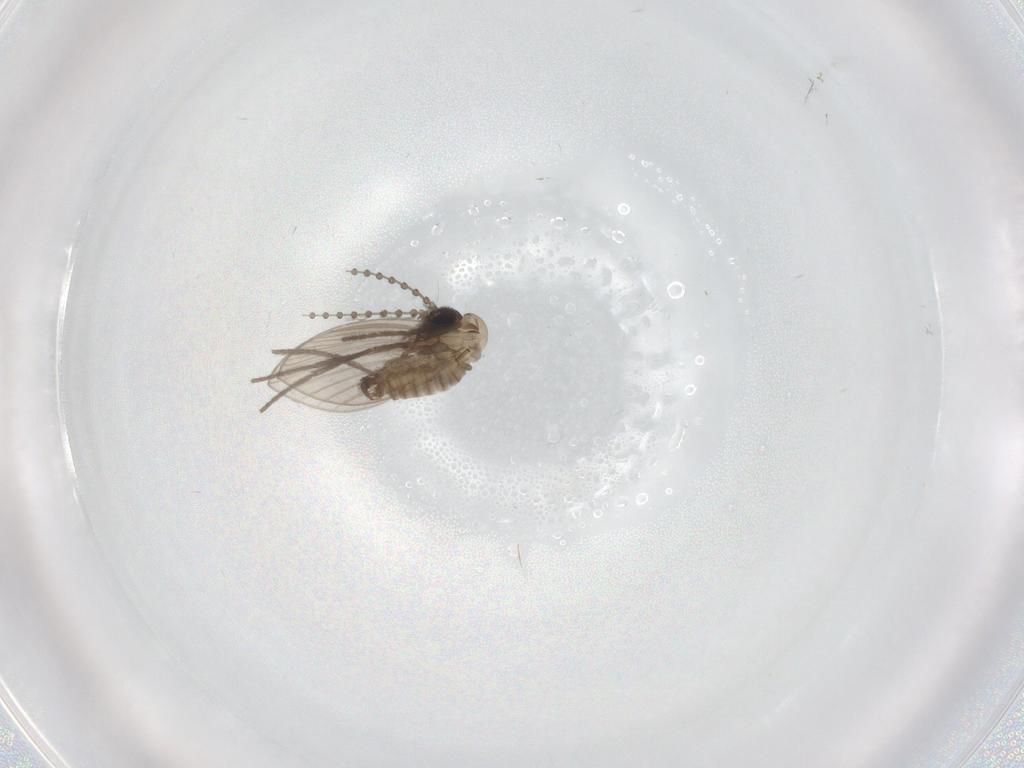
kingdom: Animalia
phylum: Arthropoda
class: Insecta
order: Diptera
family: Psychodidae
